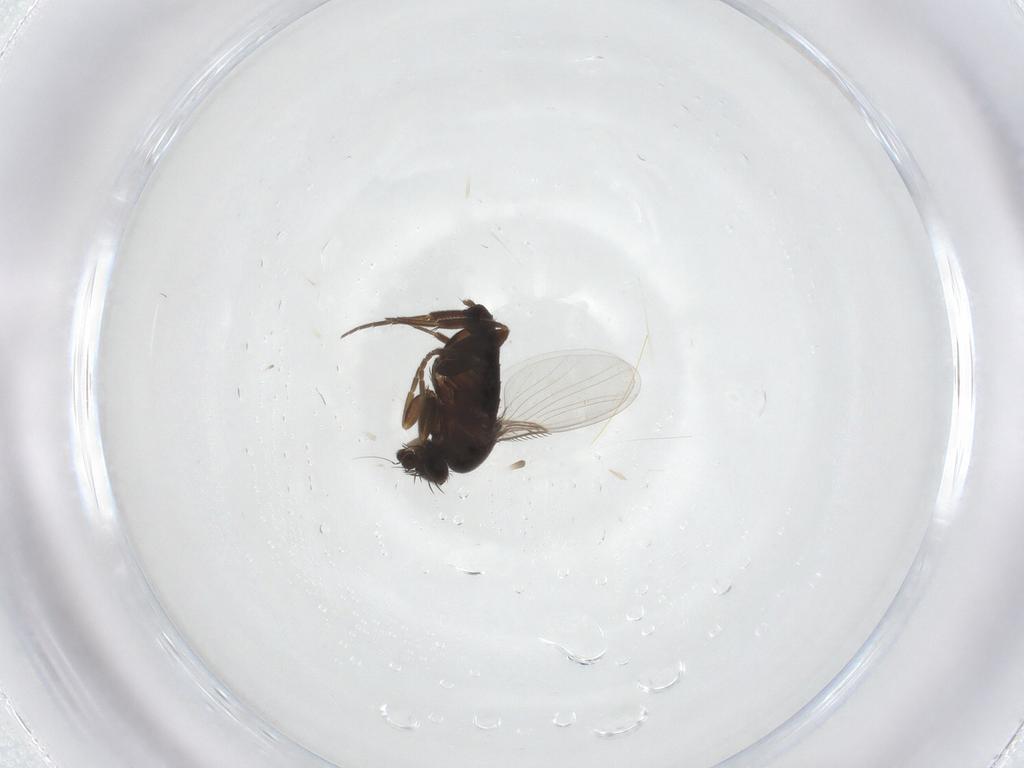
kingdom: Animalia
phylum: Arthropoda
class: Insecta
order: Diptera
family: Phoridae
